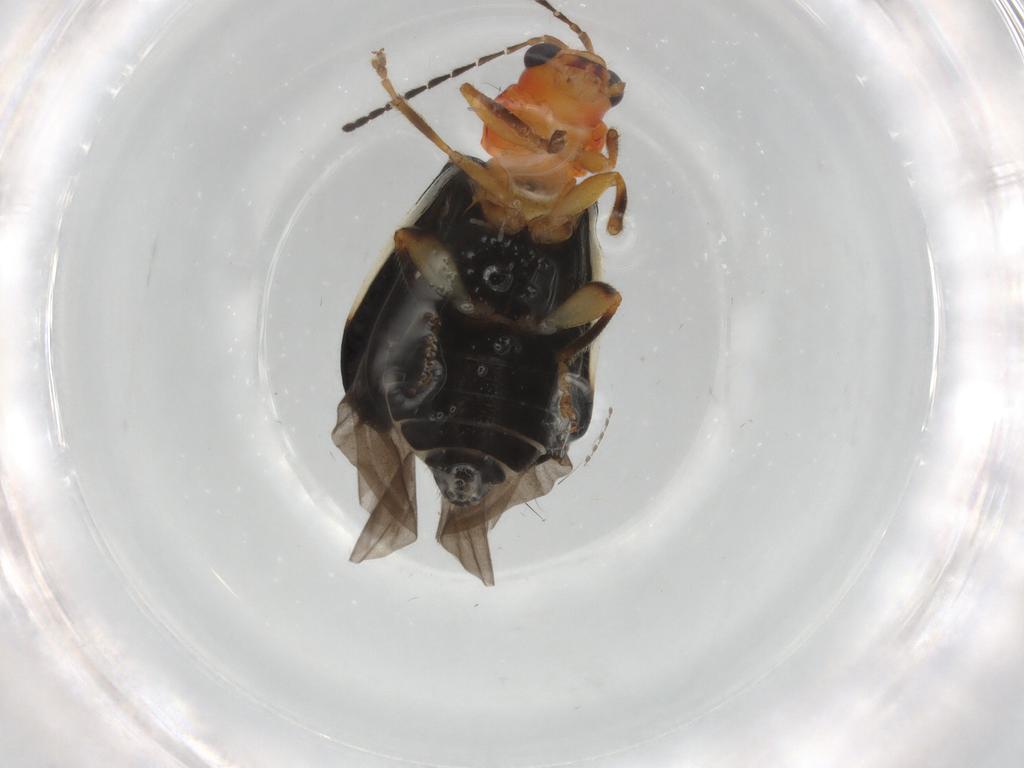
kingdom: Animalia
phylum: Arthropoda
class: Insecta
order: Coleoptera
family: Chrysomelidae
